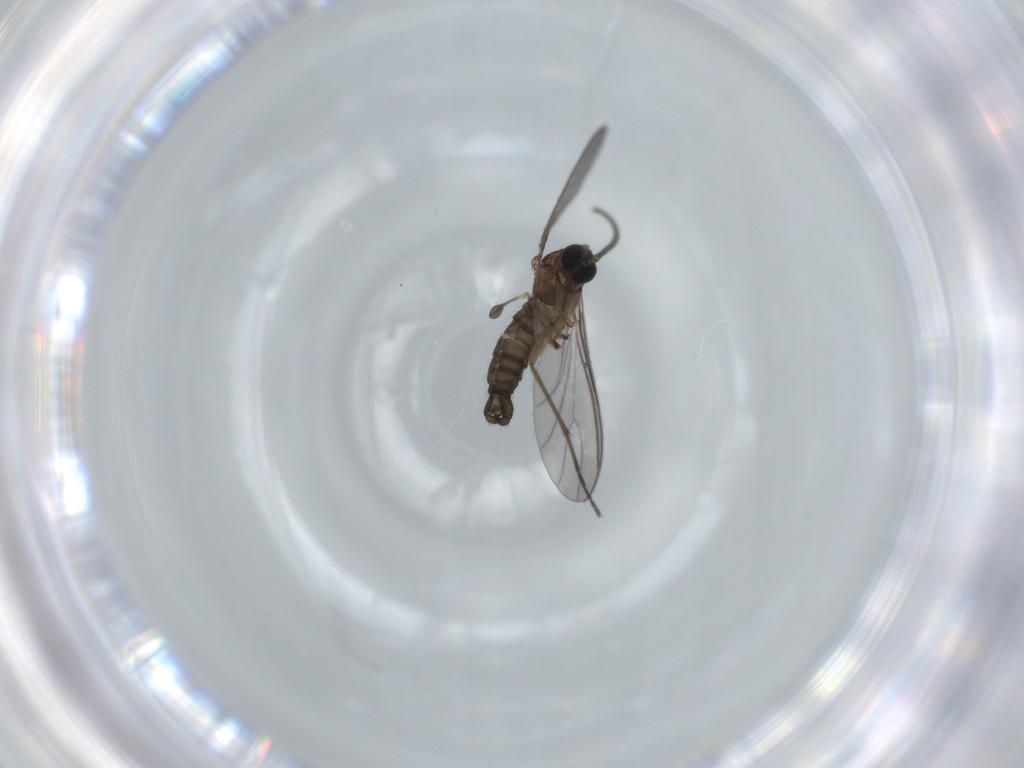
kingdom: Animalia
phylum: Arthropoda
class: Insecta
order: Diptera
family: Sciaridae
